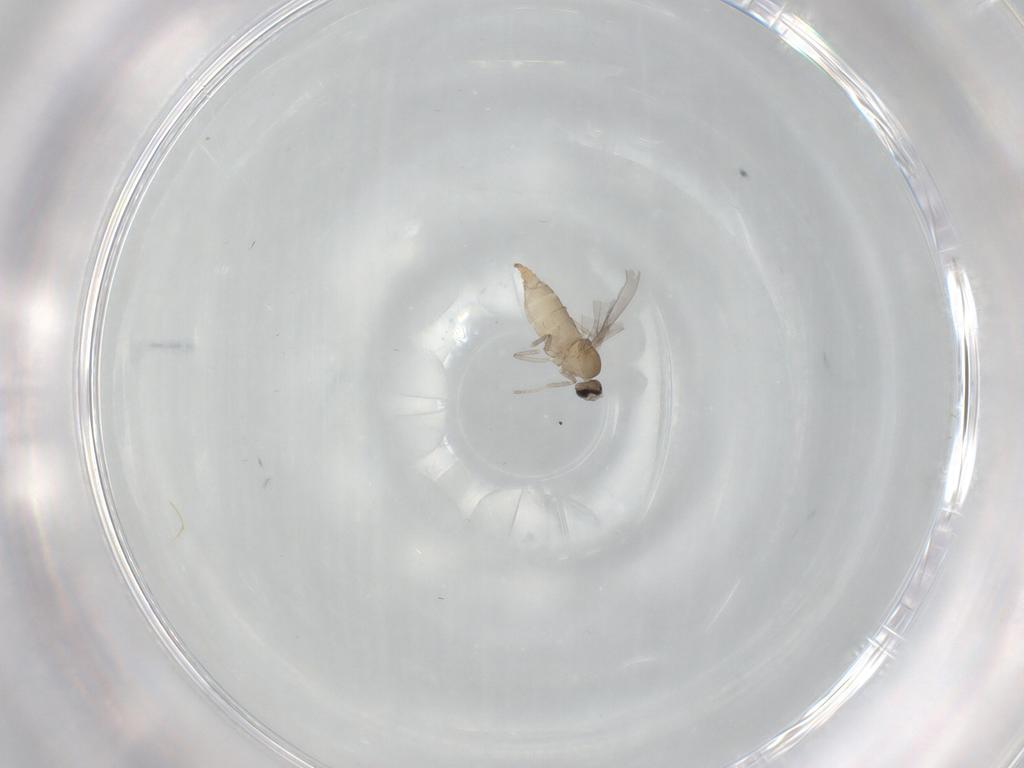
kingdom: Animalia
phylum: Arthropoda
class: Insecta
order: Diptera
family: Cecidomyiidae
